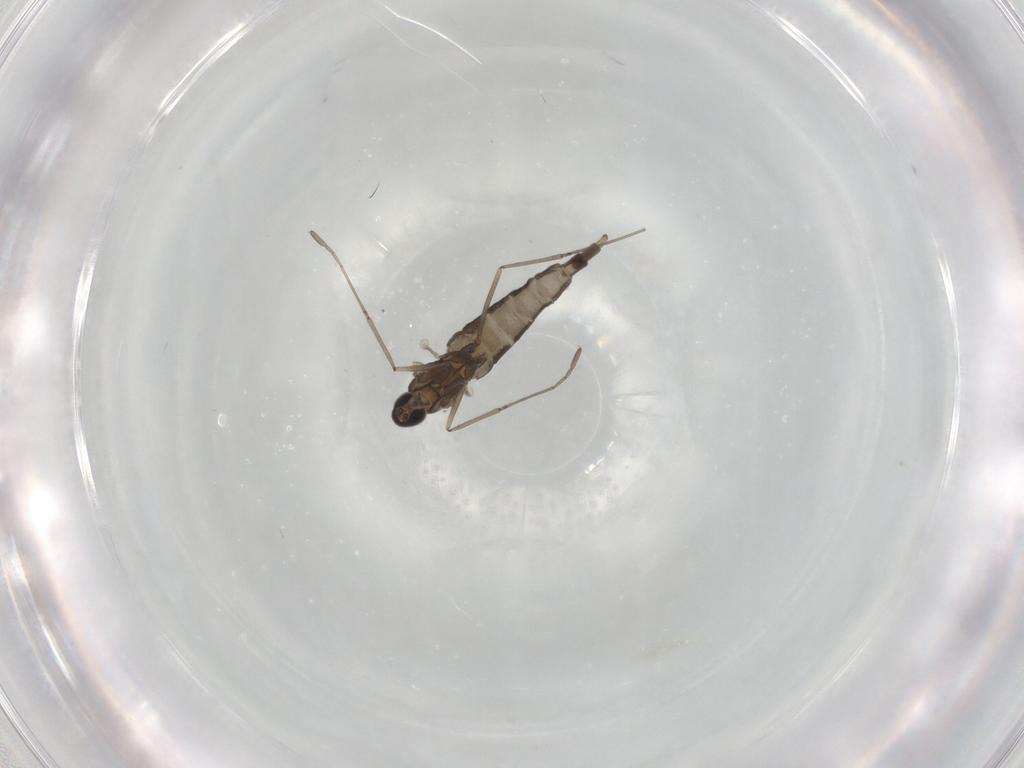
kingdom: Animalia
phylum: Arthropoda
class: Insecta
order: Diptera
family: Cecidomyiidae
